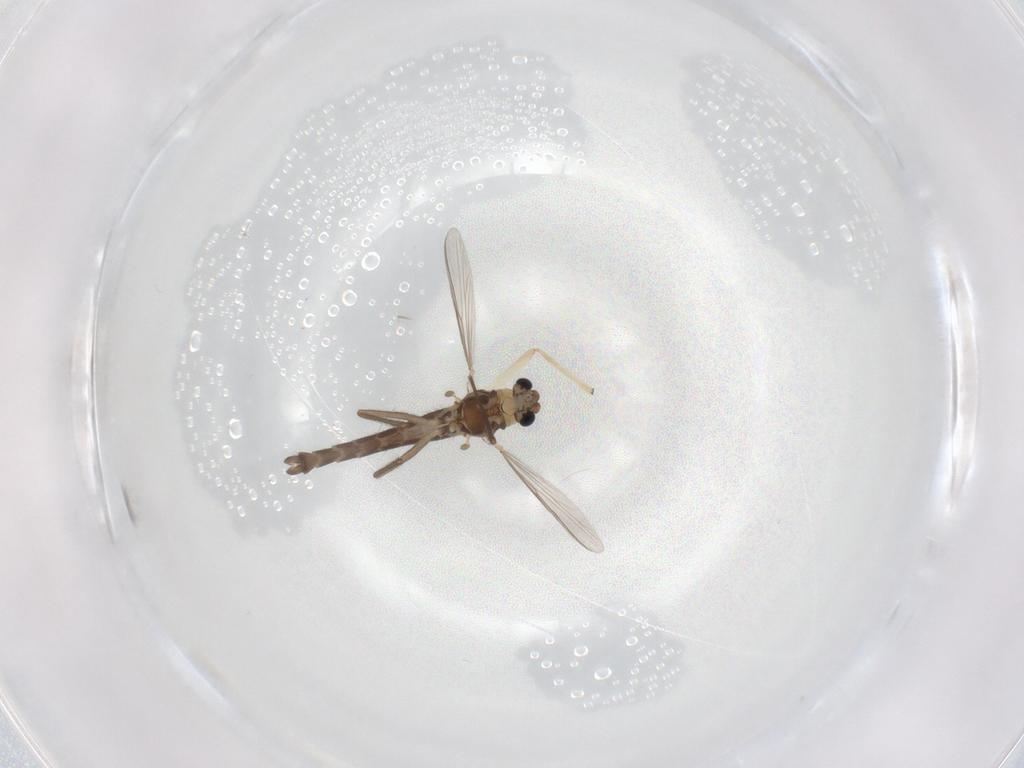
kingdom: Animalia
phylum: Arthropoda
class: Insecta
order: Diptera
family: Chironomidae
